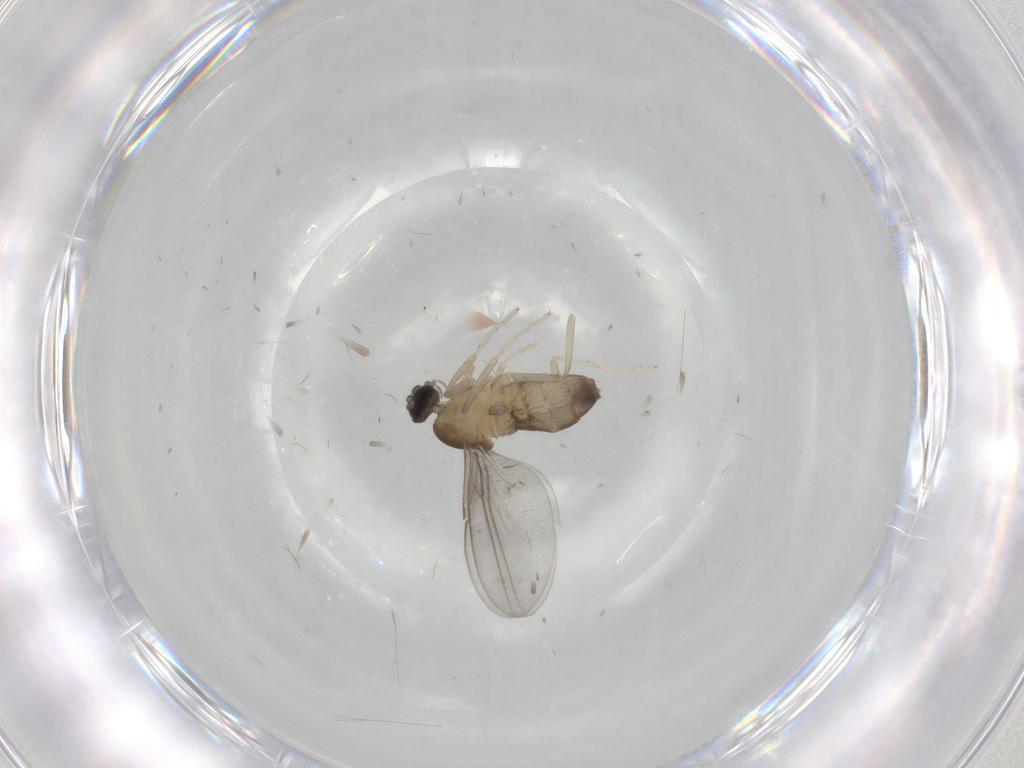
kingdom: Animalia
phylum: Arthropoda
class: Insecta
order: Diptera
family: Cecidomyiidae
